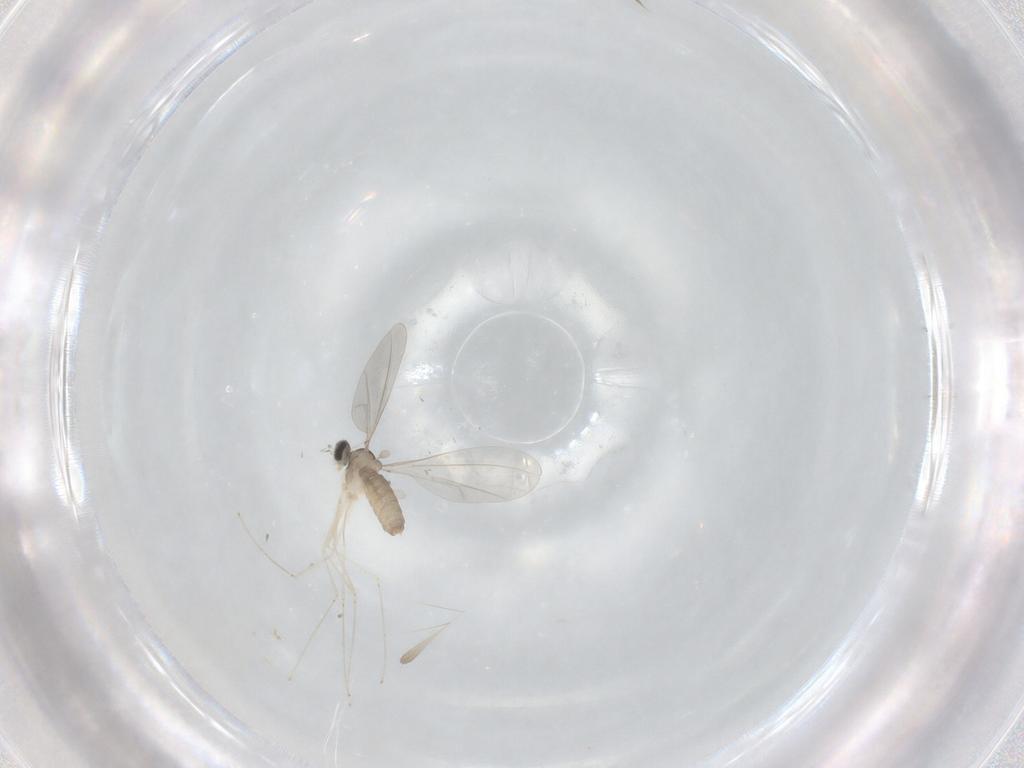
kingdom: Animalia
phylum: Arthropoda
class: Insecta
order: Diptera
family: Cecidomyiidae
